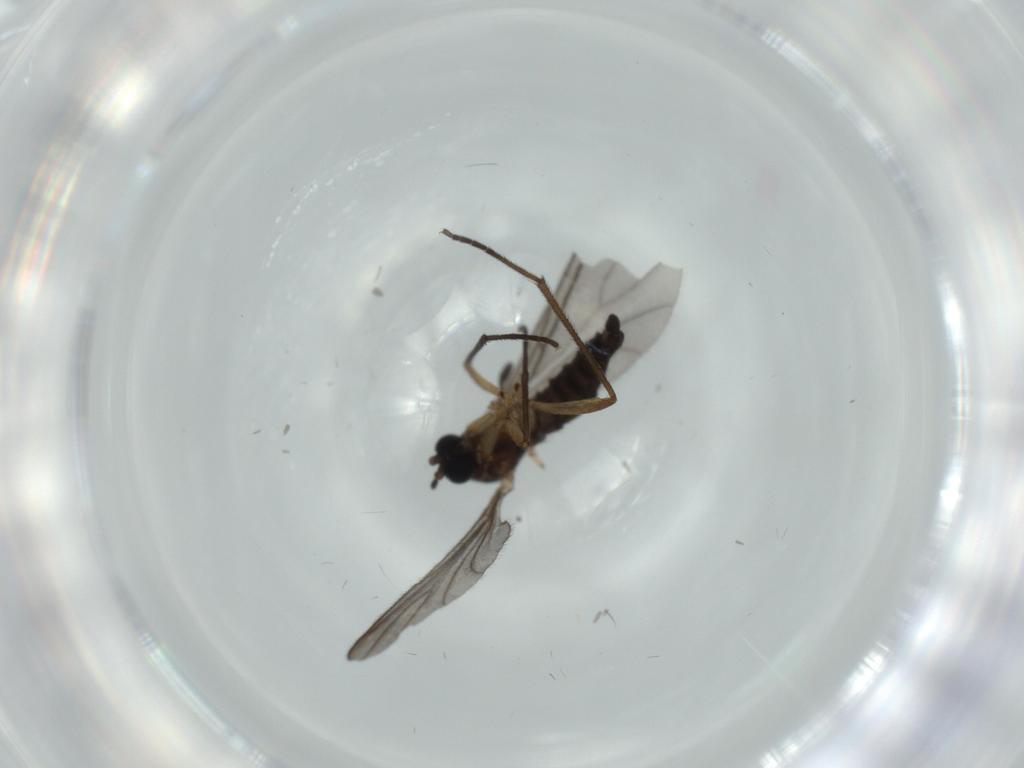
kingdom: Animalia
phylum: Arthropoda
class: Insecta
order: Diptera
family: Sciaridae
